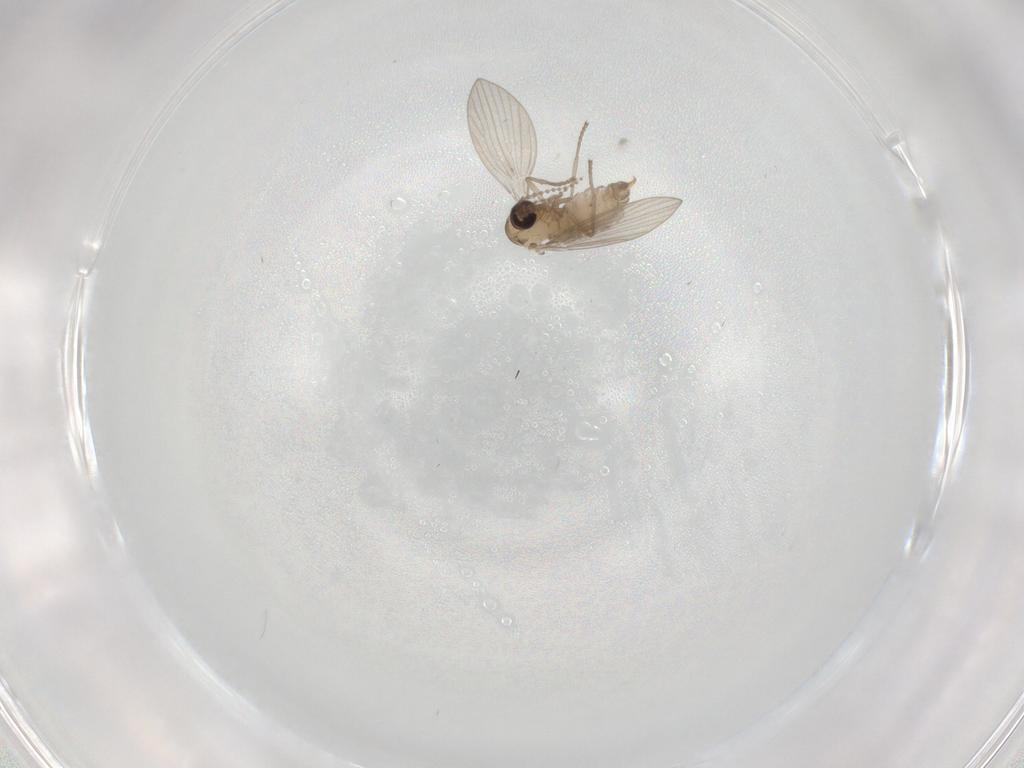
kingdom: Animalia
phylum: Arthropoda
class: Insecta
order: Diptera
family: Psychodidae
